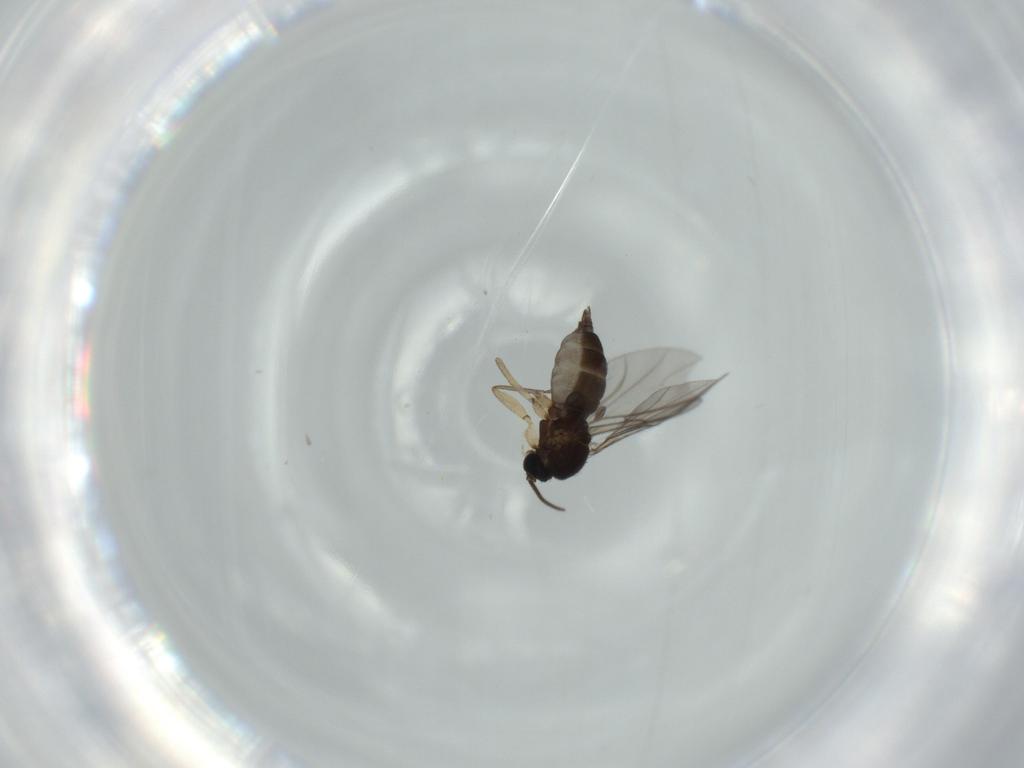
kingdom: Animalia
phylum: Arthropoda
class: Insecta
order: Diptera
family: Sciaridae
